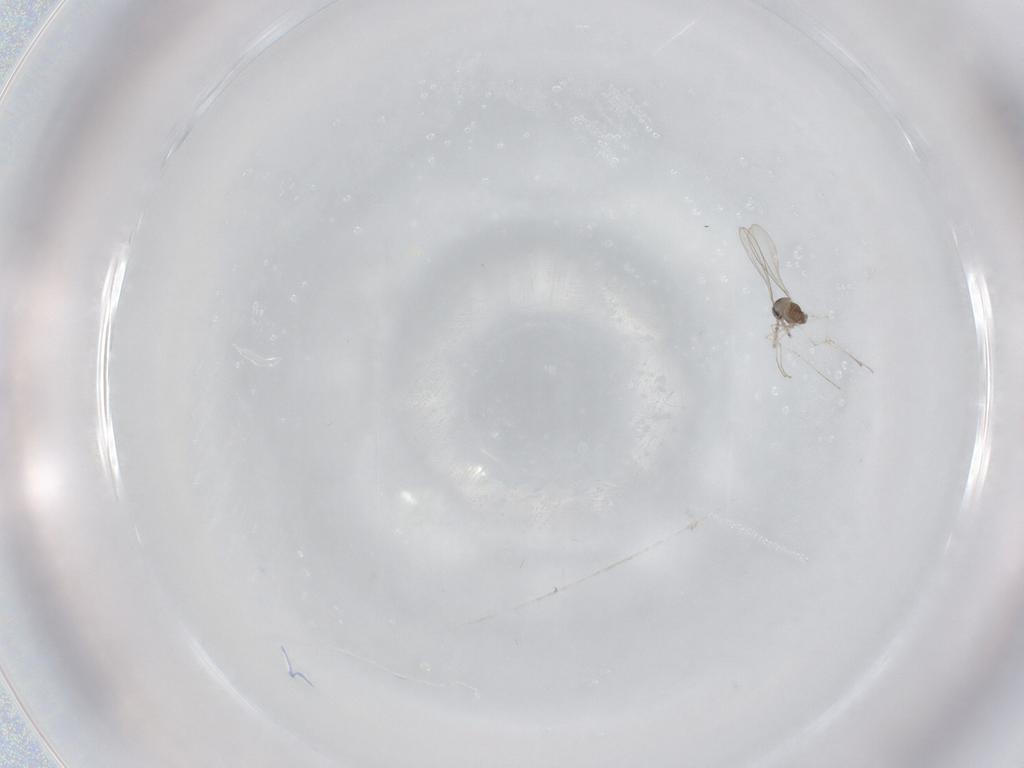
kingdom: Animalia
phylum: Arthropoda
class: Insecta
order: Diptera
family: Cecidomyiidae
